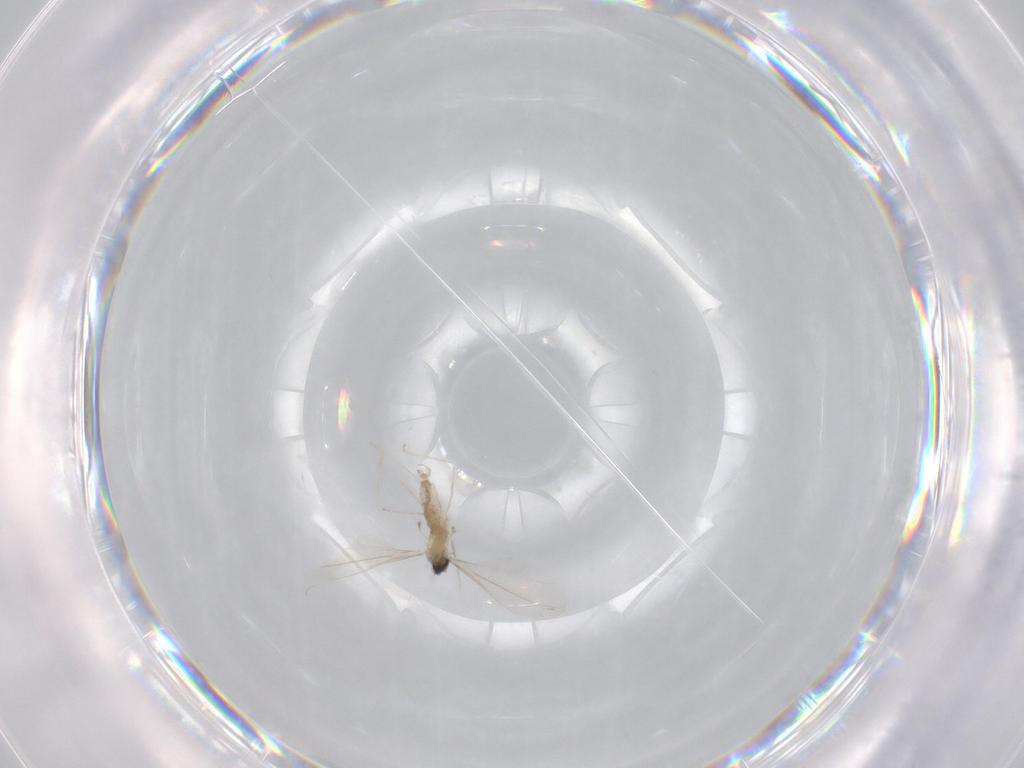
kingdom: Animalia
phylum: Arthropoda
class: Insecta
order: Diptera
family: Cecidomyiidae
